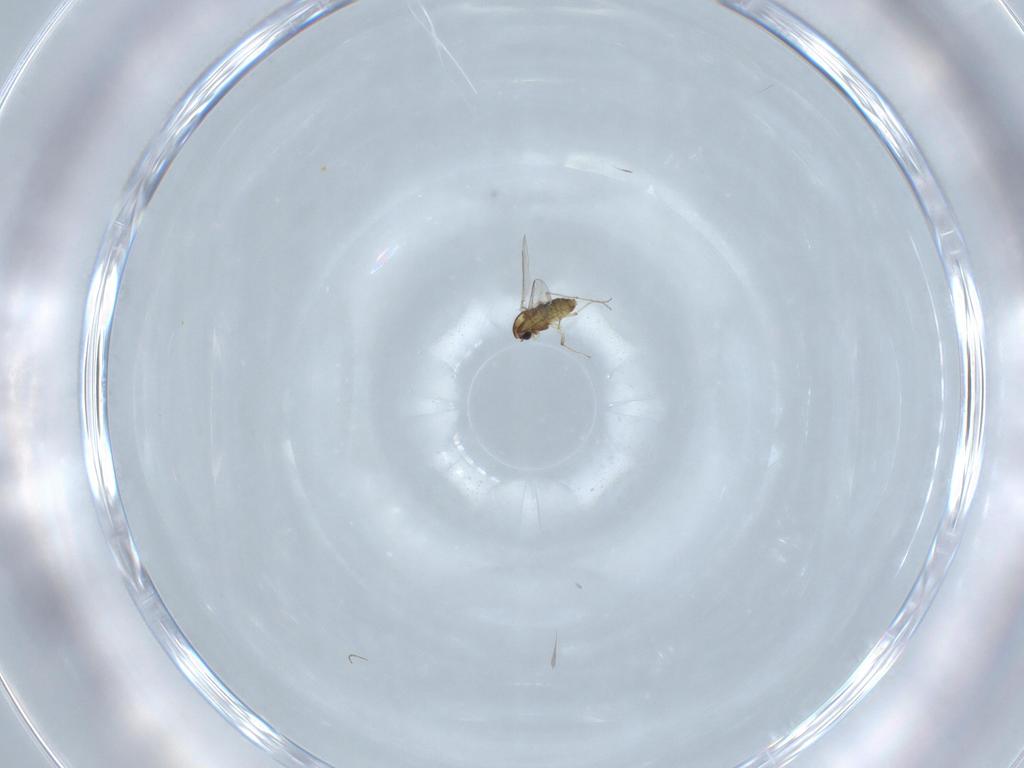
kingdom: Animalia
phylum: Arthropoda
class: Insecta
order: Diptera
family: Chironomidae
